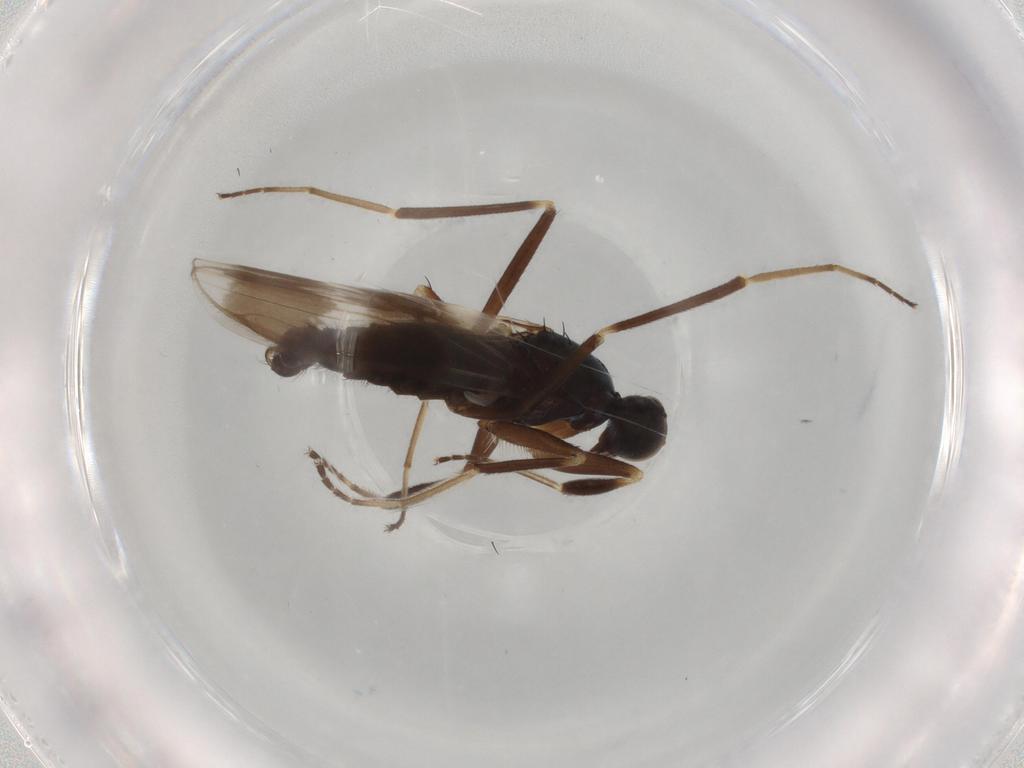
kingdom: Animalia
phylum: Arthropoda
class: Insecta
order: Diptera
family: Hybotidae
